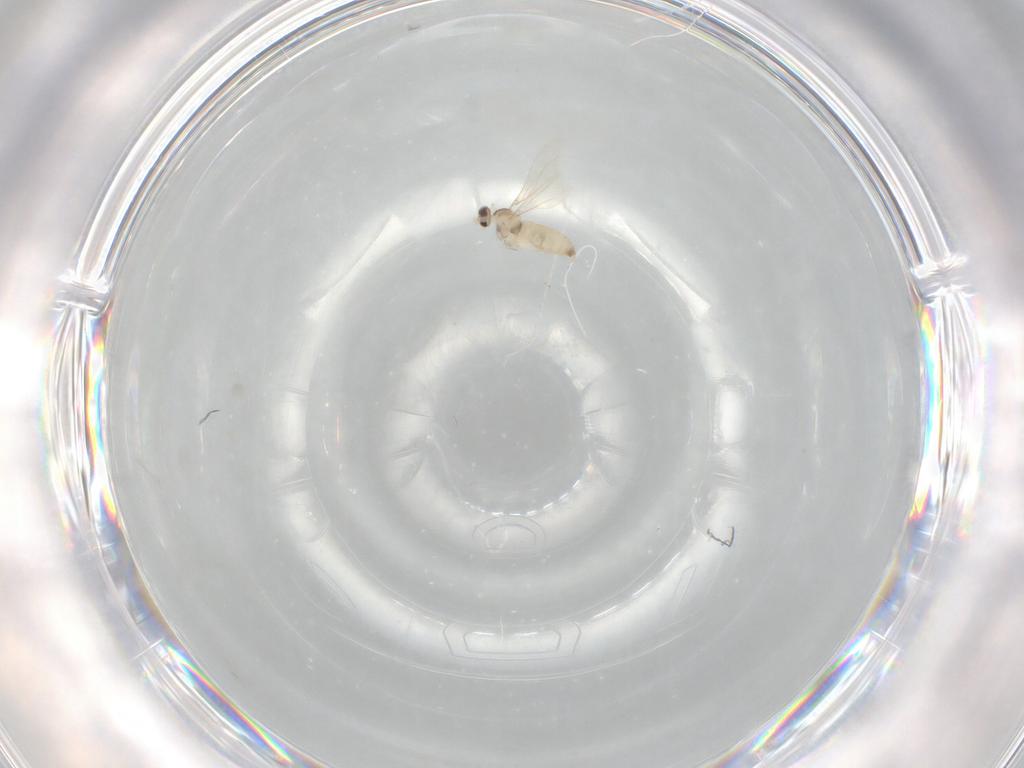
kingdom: Animalia
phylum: Arthropoda
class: Insecta
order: Diptera
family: Cecidomyiidae
